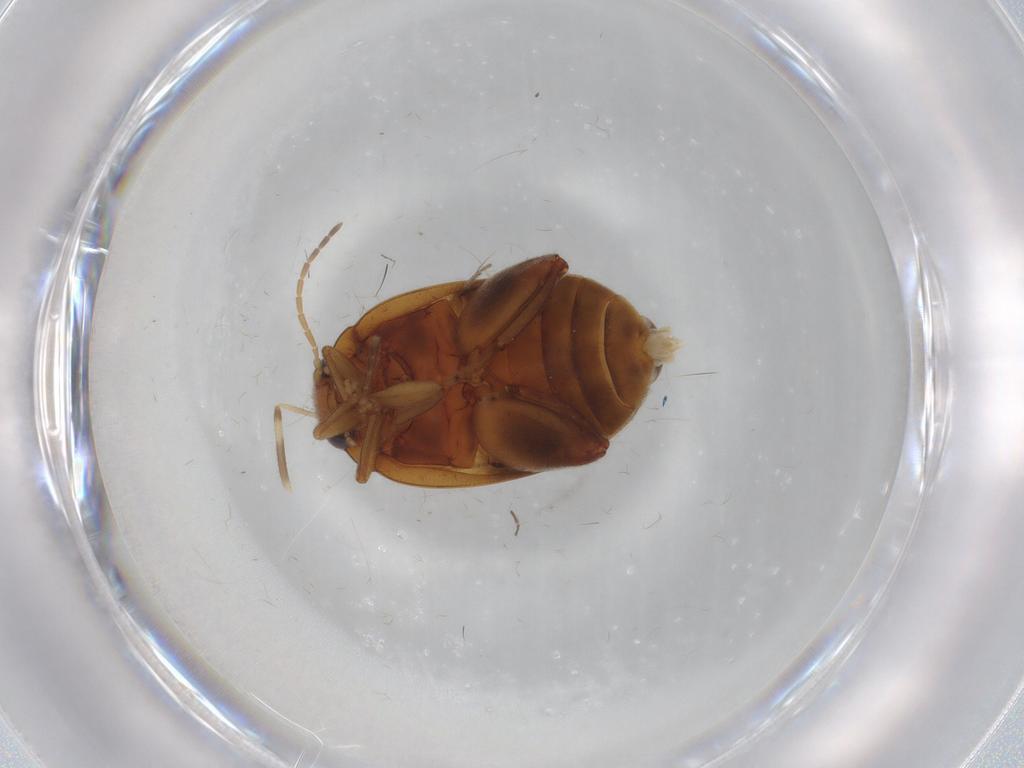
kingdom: Animalia
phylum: Arthropoda
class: Insecta
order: Coleoptera
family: Scirtidae
